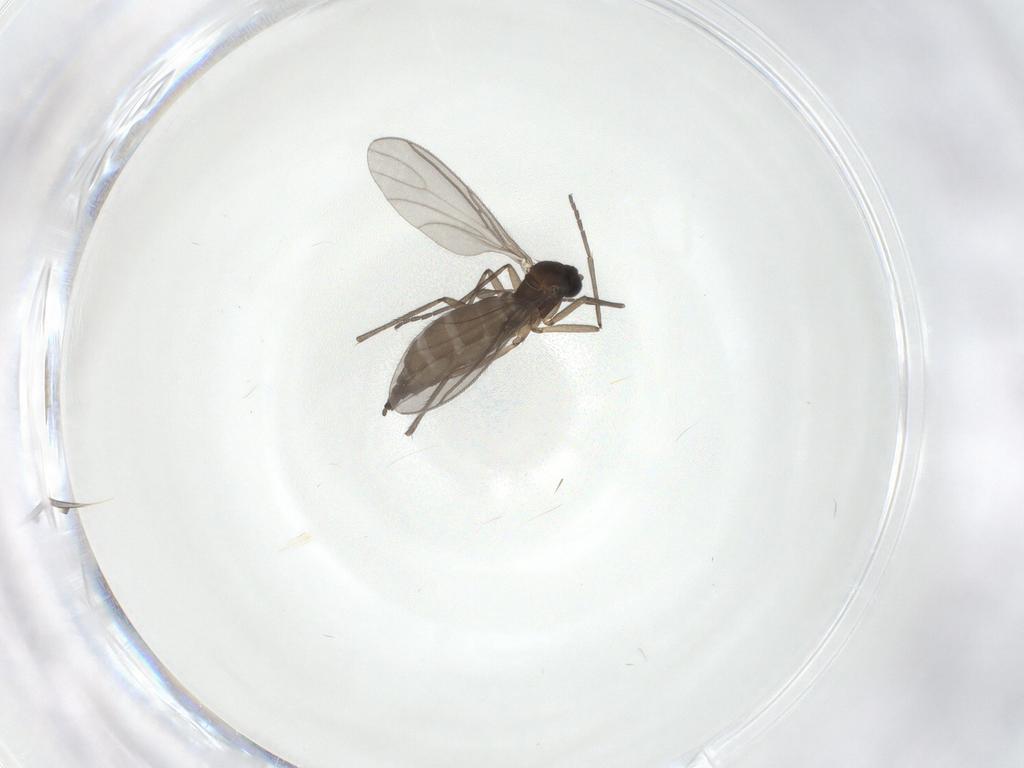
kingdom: Animalia
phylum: Arthropoda
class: Insecta
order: Diptera
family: Sciaridae
